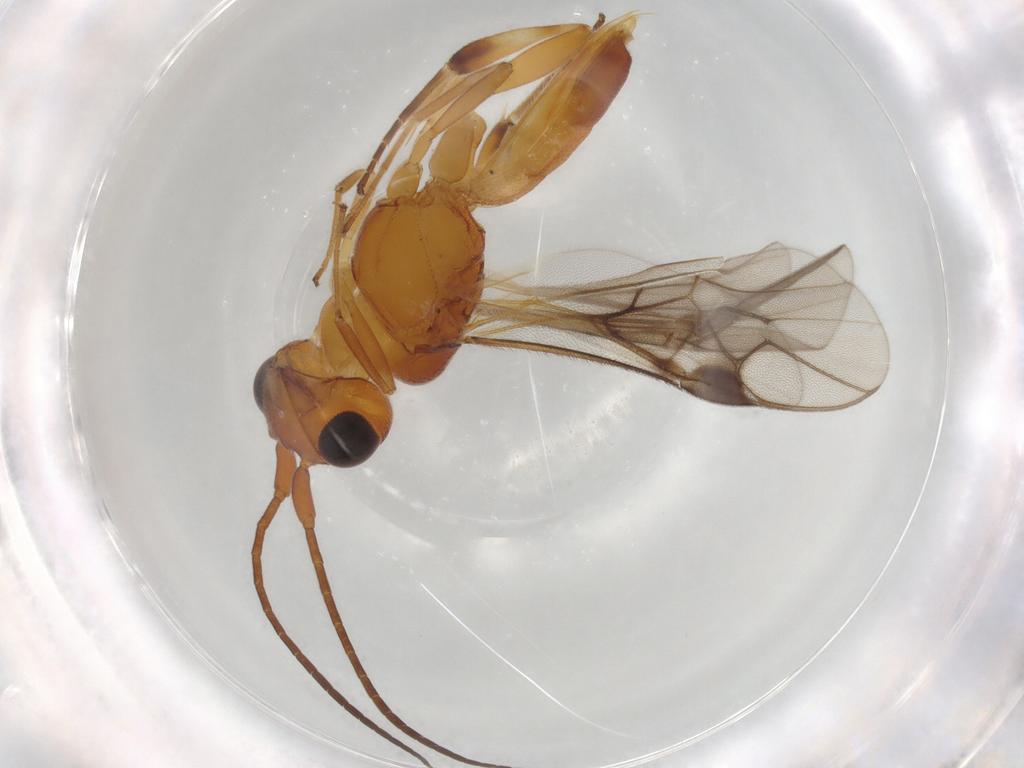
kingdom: Animalia
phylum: Arthropoda
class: Insecta
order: Hymenoptera
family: Braconidae
